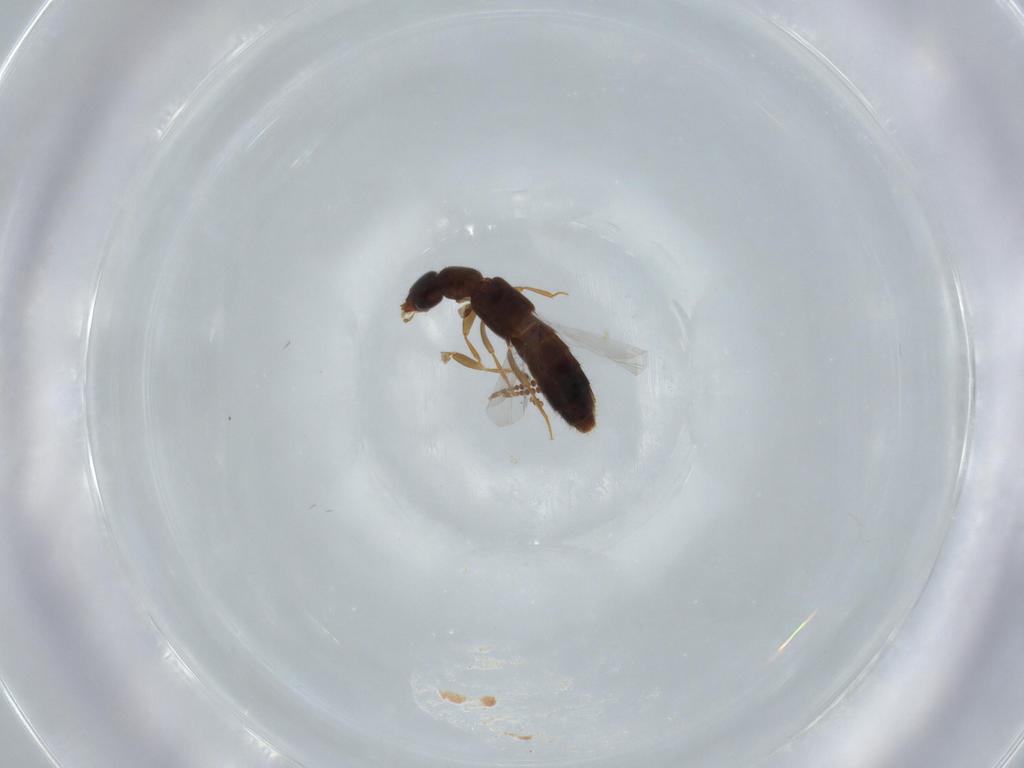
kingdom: Animalia
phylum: Arthropoda
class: Insecta
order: Coleoptera
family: Staphylinidae
